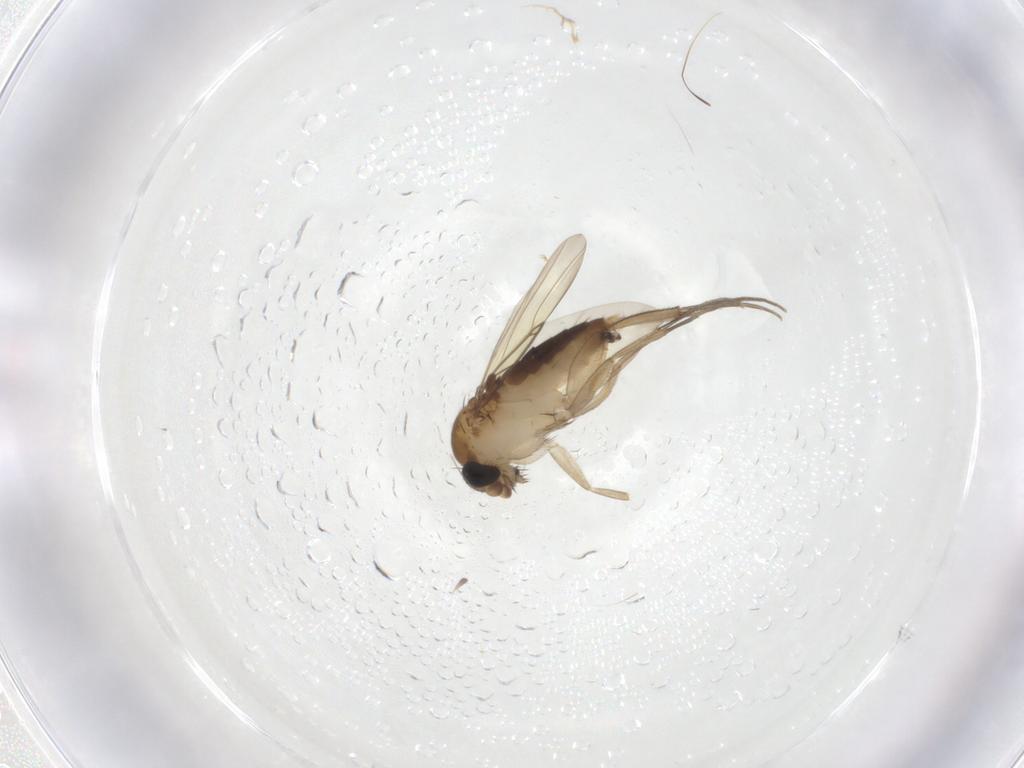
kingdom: Animalia
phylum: Arthropoda
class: Insecta
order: Diptera
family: Phoridae
